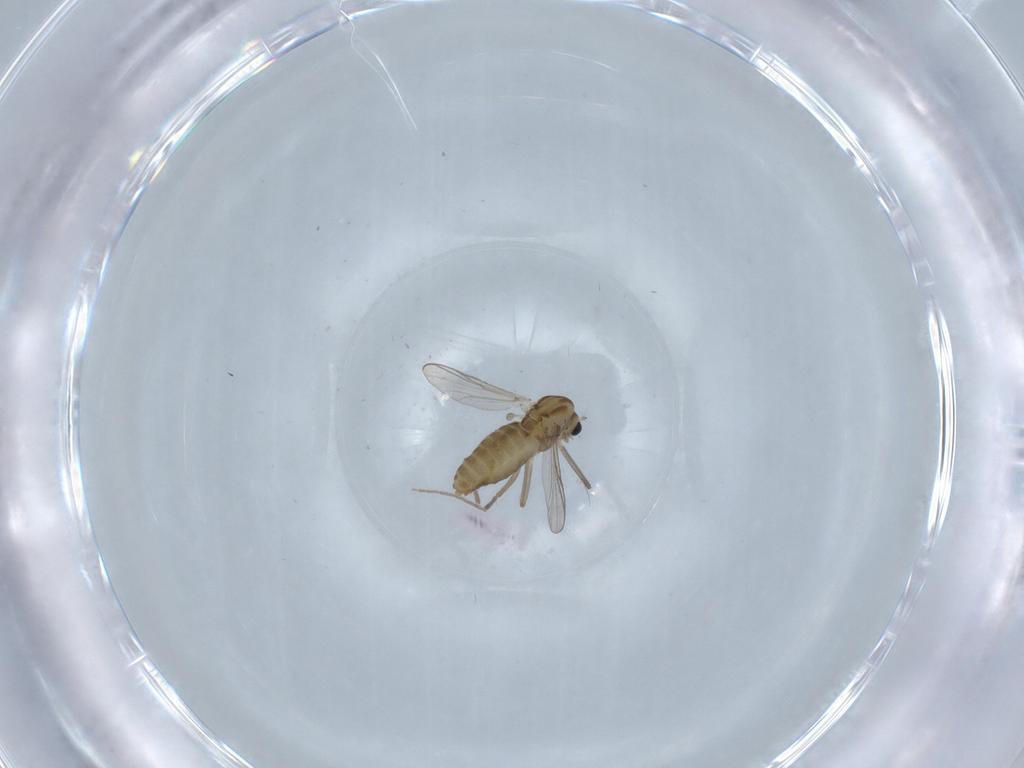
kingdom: Animalia
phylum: Arthropoda
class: Insecta
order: Diptera
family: Chironomidae
